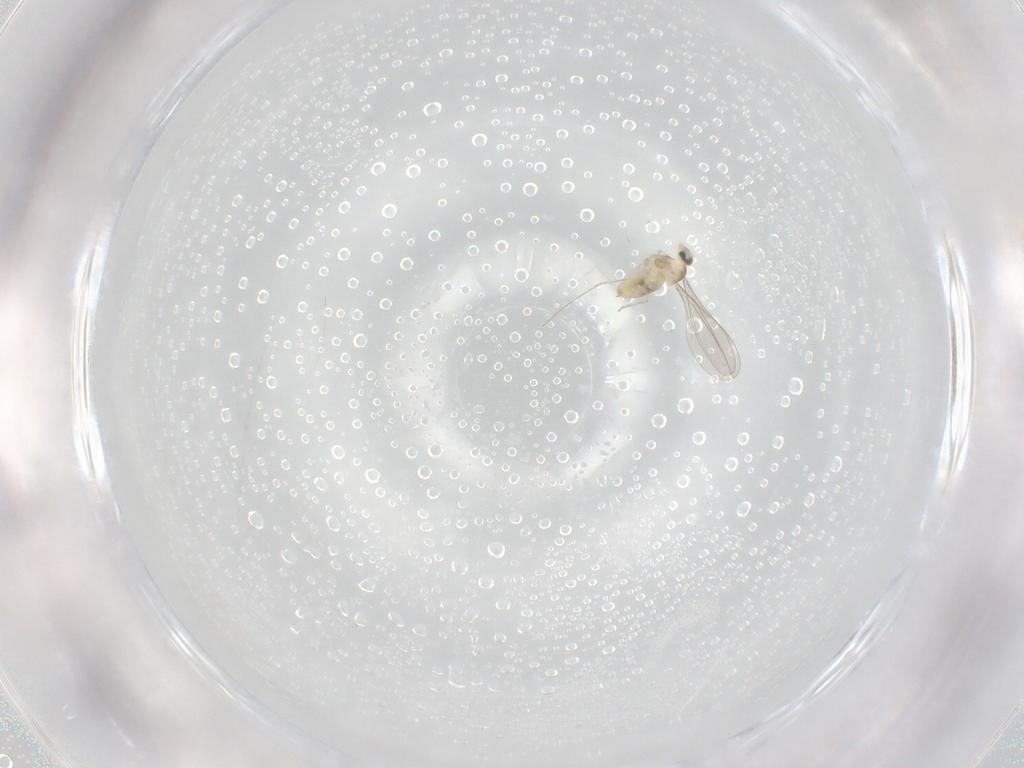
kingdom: Animalia
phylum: Arthropoda
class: Insecta
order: Diptera
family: Cecidomyiidae
